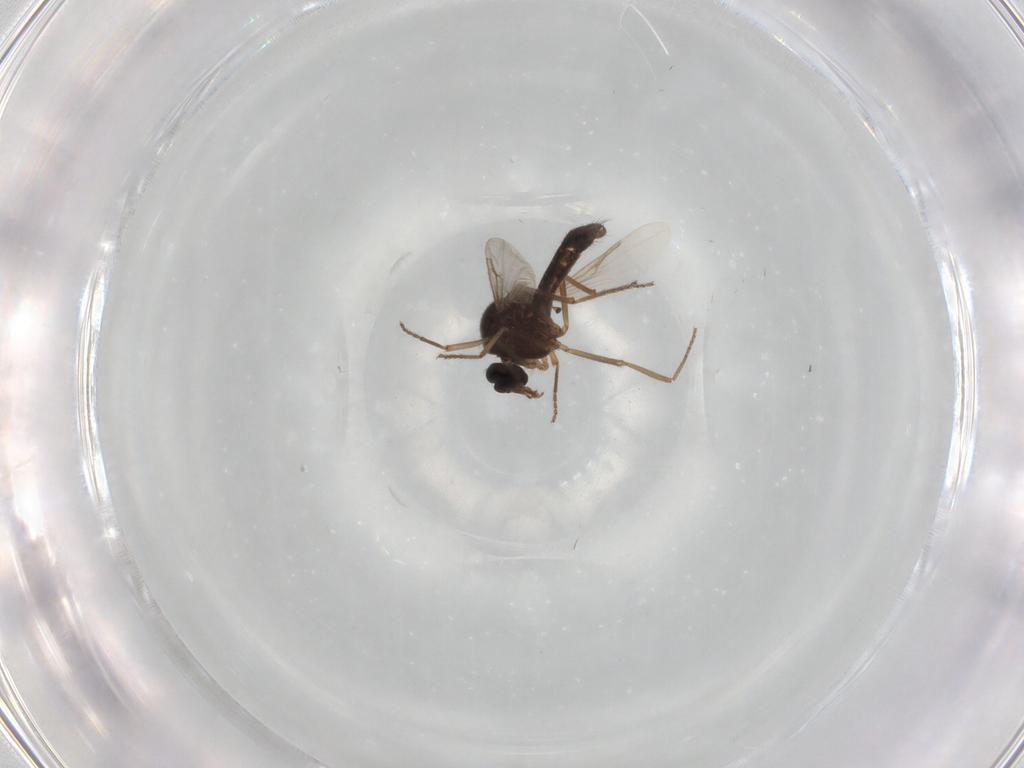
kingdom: Animalia
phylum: Arthropoda
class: Insecta
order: Diptera
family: Ceratopogonidae
